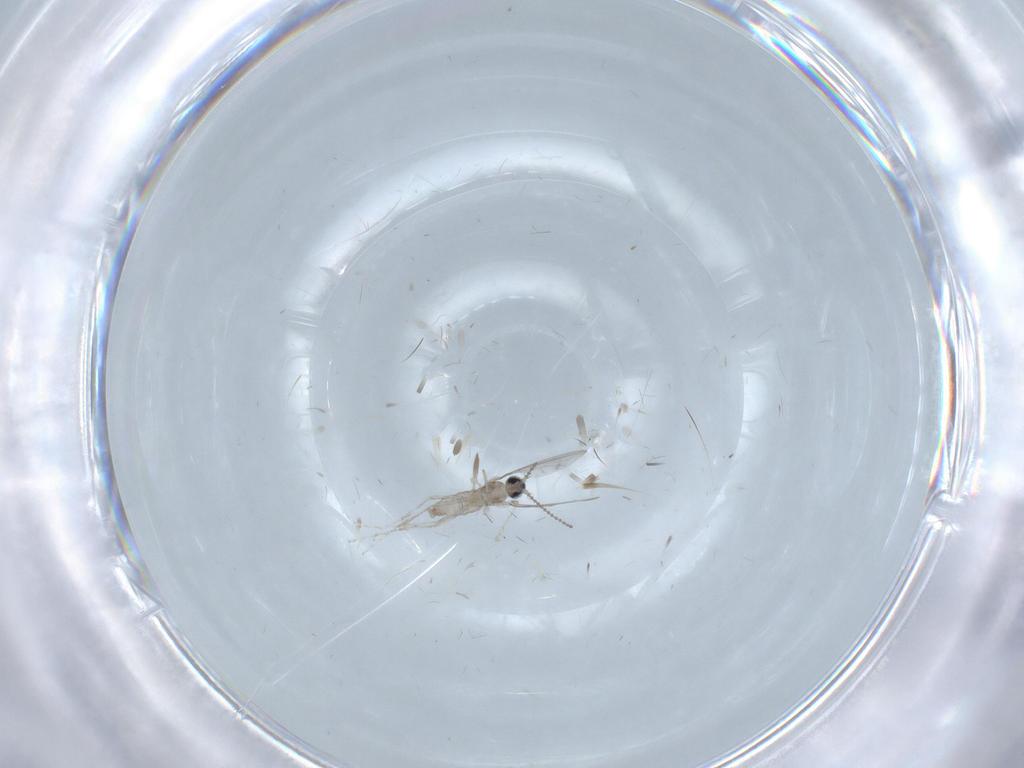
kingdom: Animalia
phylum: Arthropoda
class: Insecta
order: Diptera
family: Cecidomyiidae
